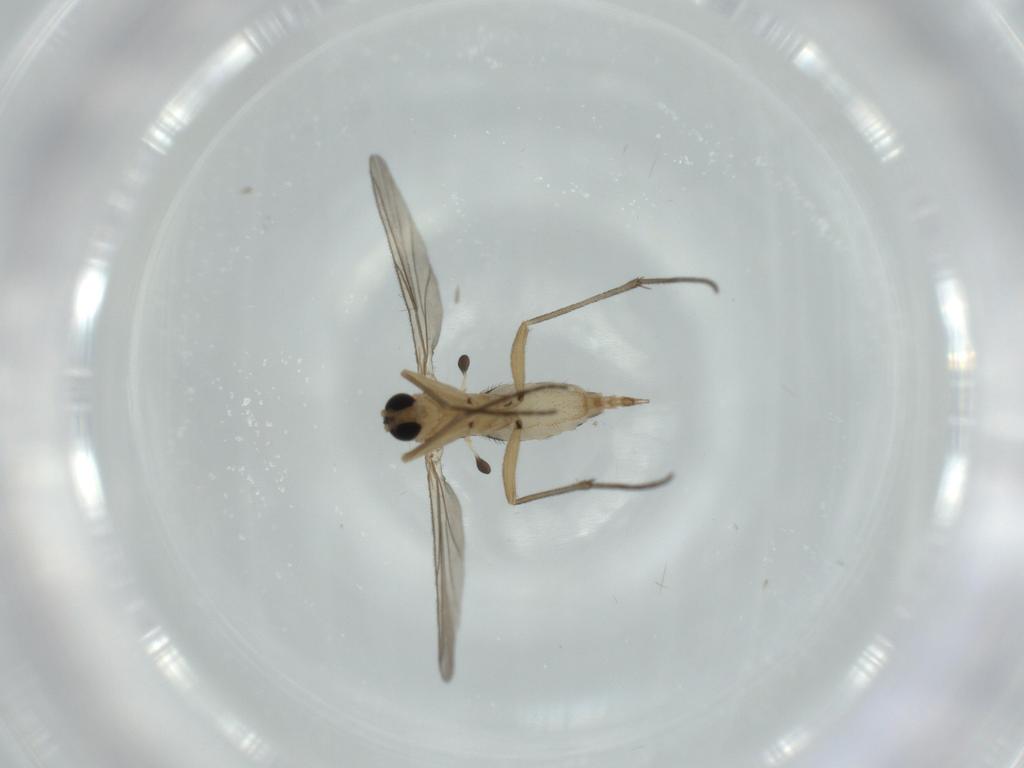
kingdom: Animalia
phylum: Arthropoda
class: Insecta
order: Diptera
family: Sciaridae
